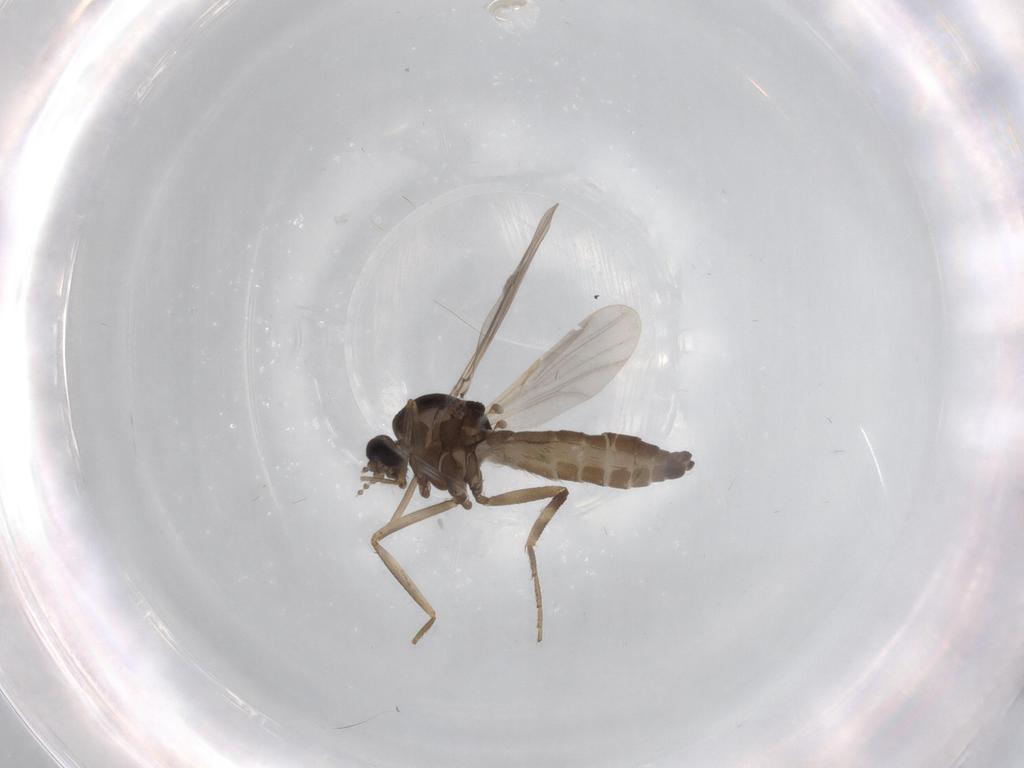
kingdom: Animalia
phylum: Arthropoda
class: Insecta
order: Diptera
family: Ceratopogonidae
